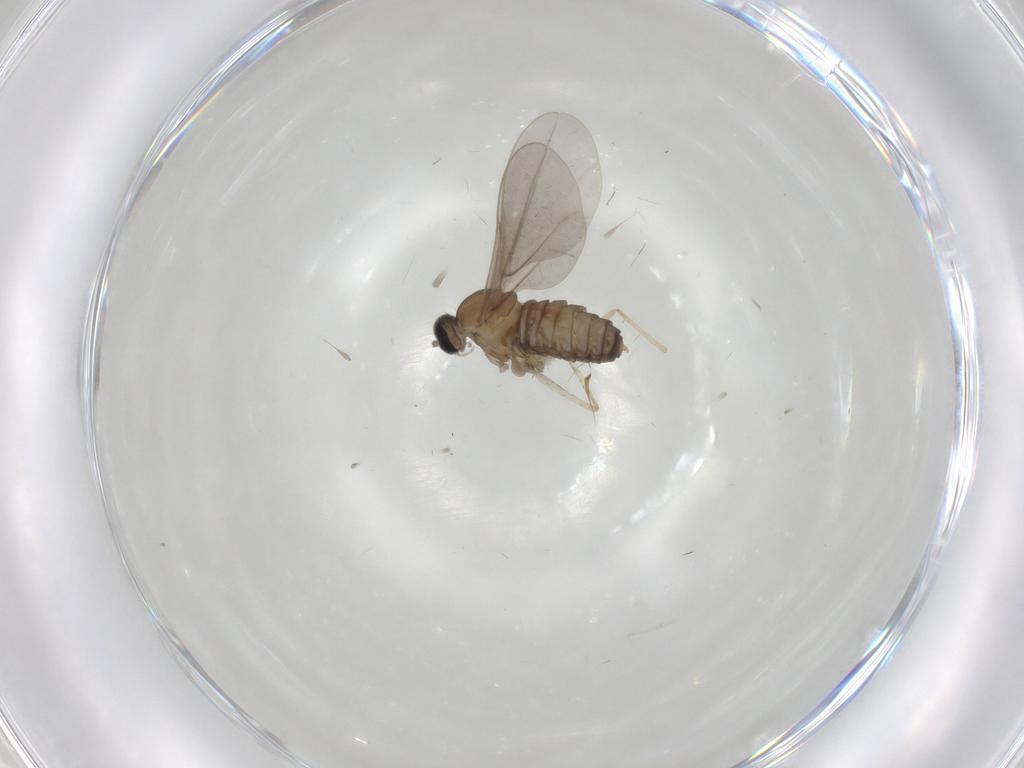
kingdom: Animalia
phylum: Arthropoda
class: Insecta
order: Diptera
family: Cecidomyiidae
